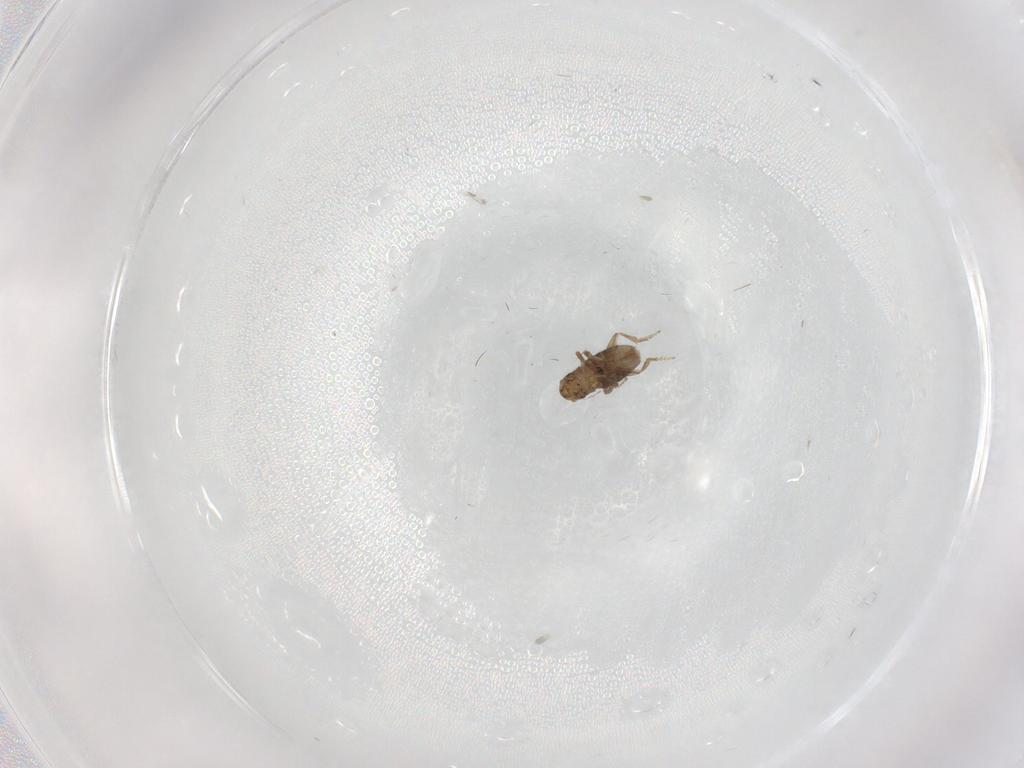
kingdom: Animalia
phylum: Arthropoda
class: Insecta
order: Diptera
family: Keroplatidae
